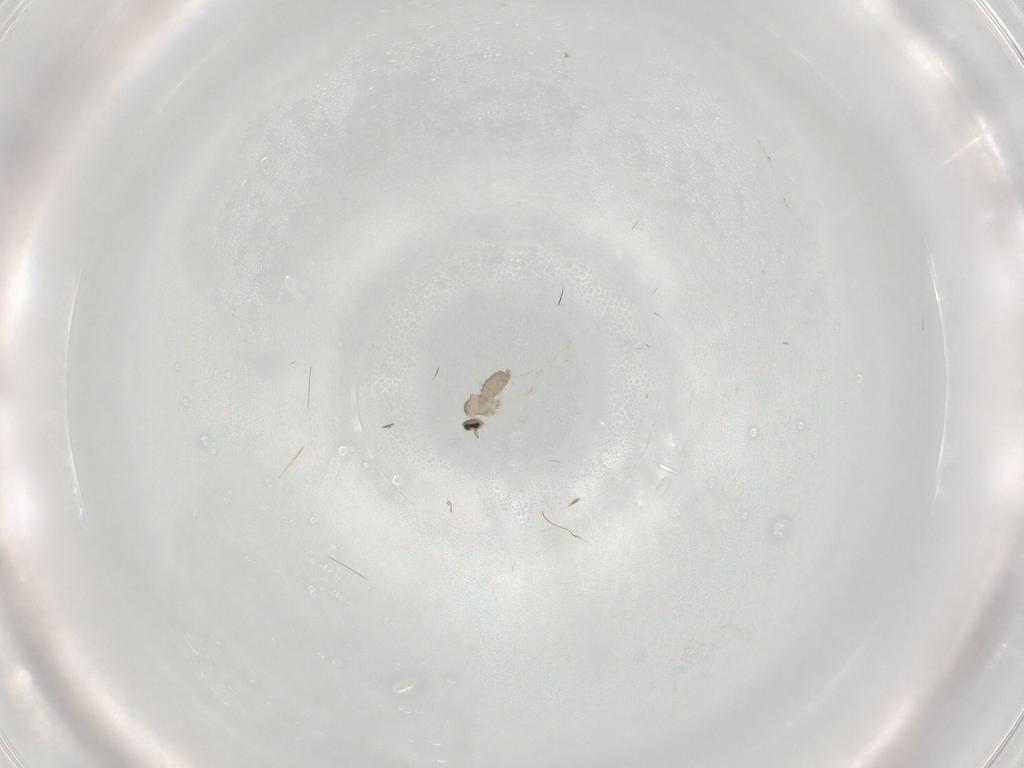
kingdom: Animalia
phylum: Arthropoda
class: Insecta
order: Diptera
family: Cecidomyiidae
